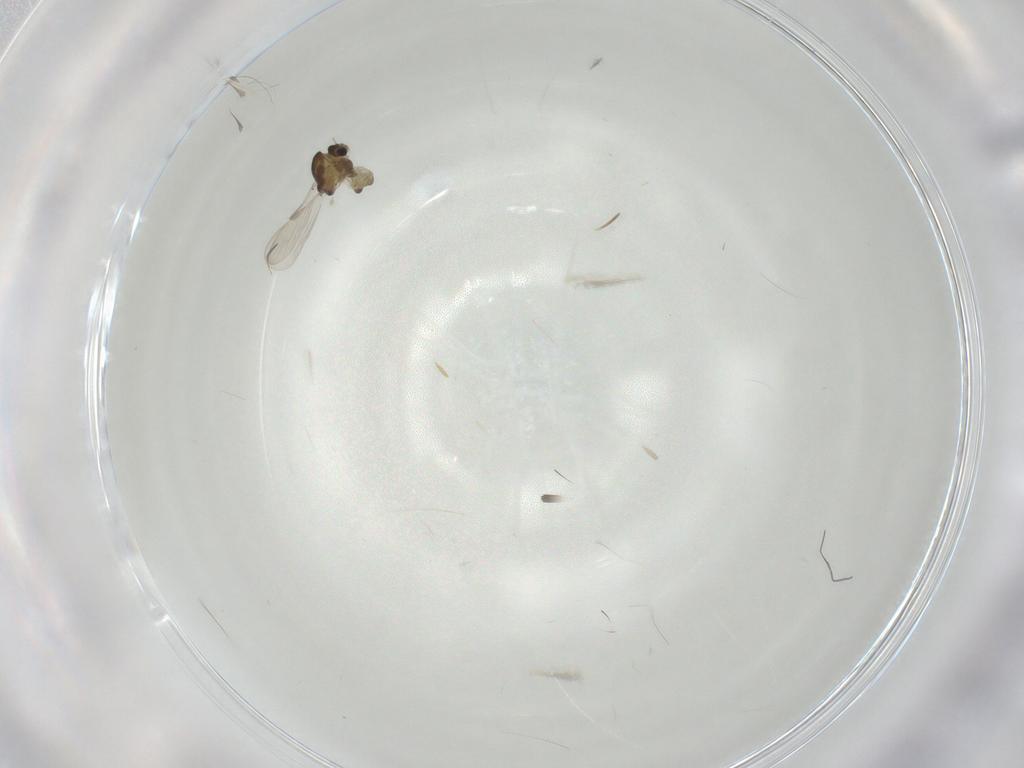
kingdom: Animalia
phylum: Arthropoda
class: Insecta
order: Diptera
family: Chironomidae
